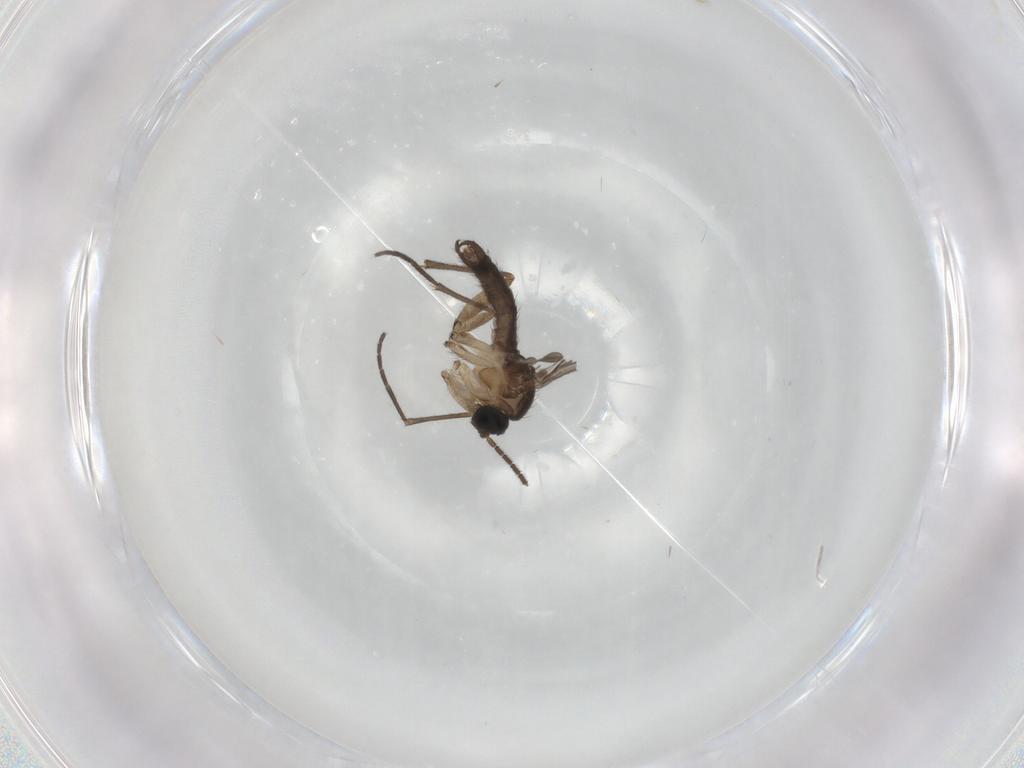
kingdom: Animalia
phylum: Arthropoda
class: Insecta
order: Diptera
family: Sciaridae
